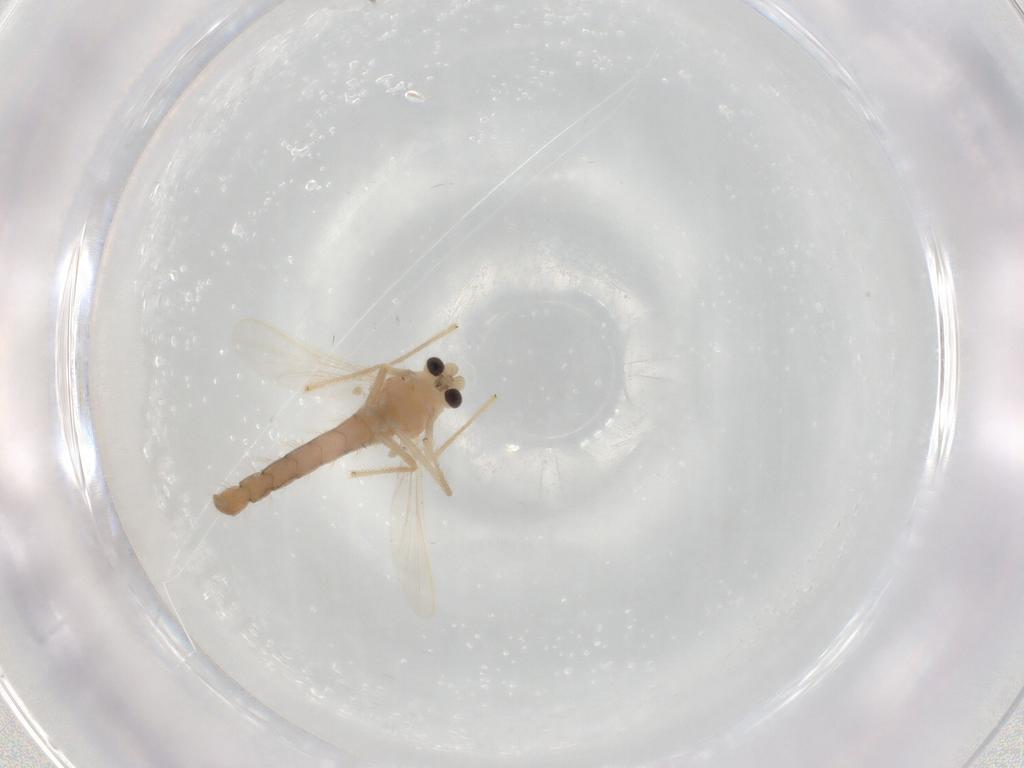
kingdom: Animalia
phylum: Arthropoda
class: Insecta
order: Diptera
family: Chironomidae
